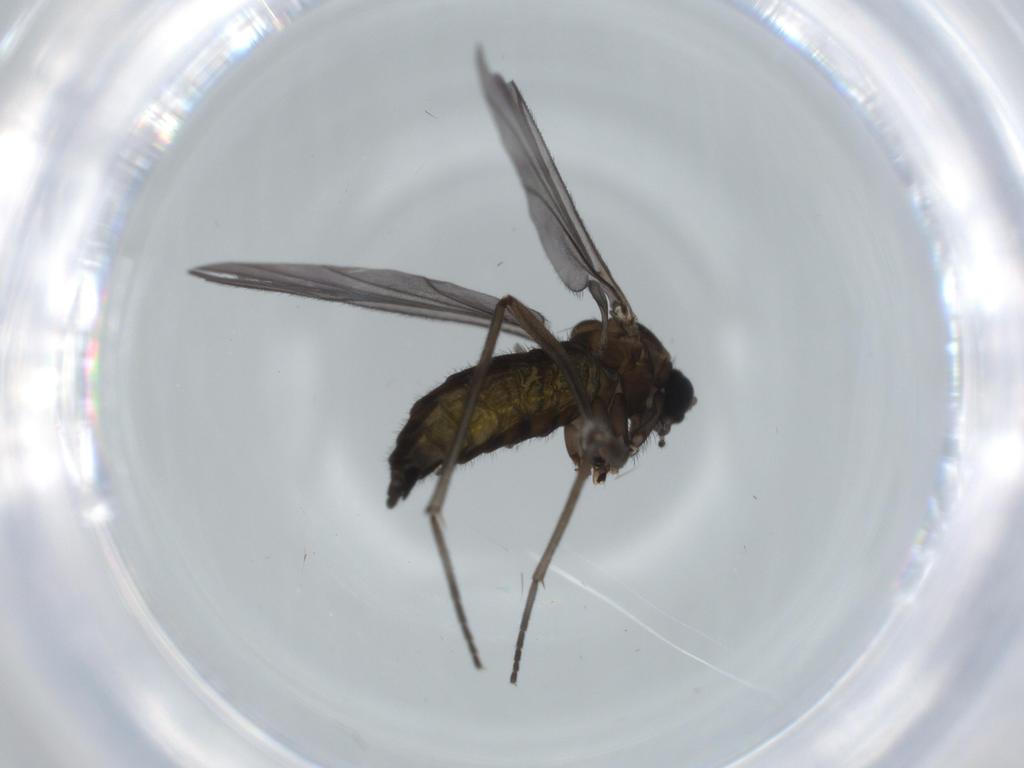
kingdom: Animalia
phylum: Arthropoda
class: Insecta
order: Diptera
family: Sciaridae
